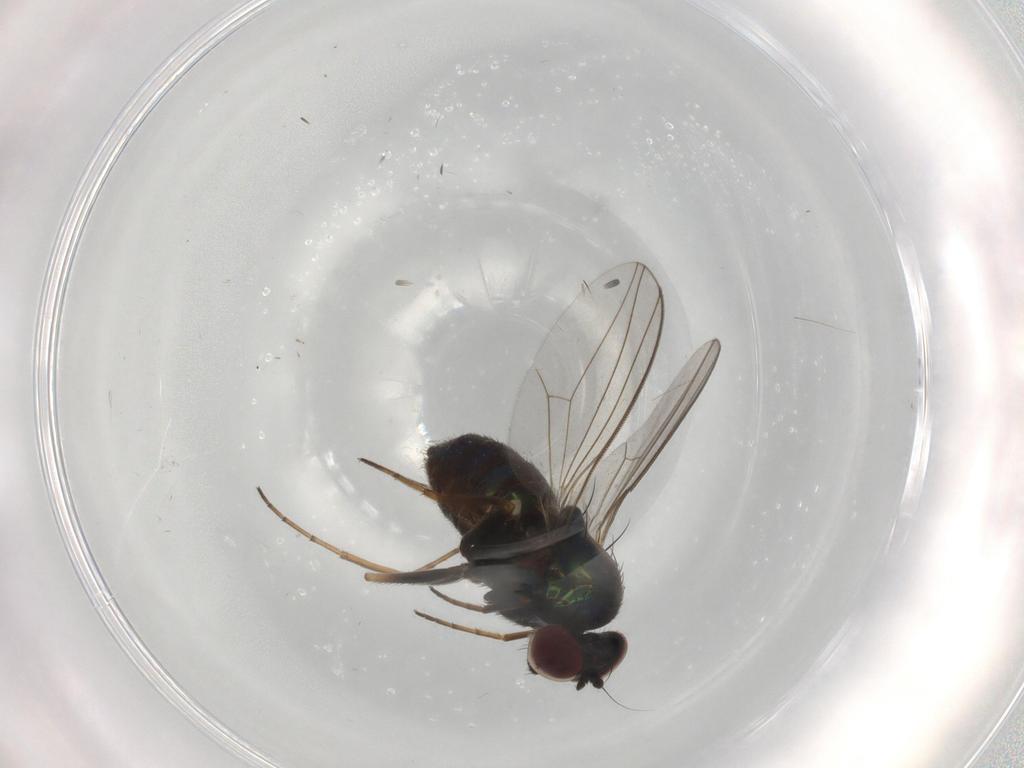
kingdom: Animalia
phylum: Arthropoda
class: Insecta
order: Diptera
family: Dolichopodidae
